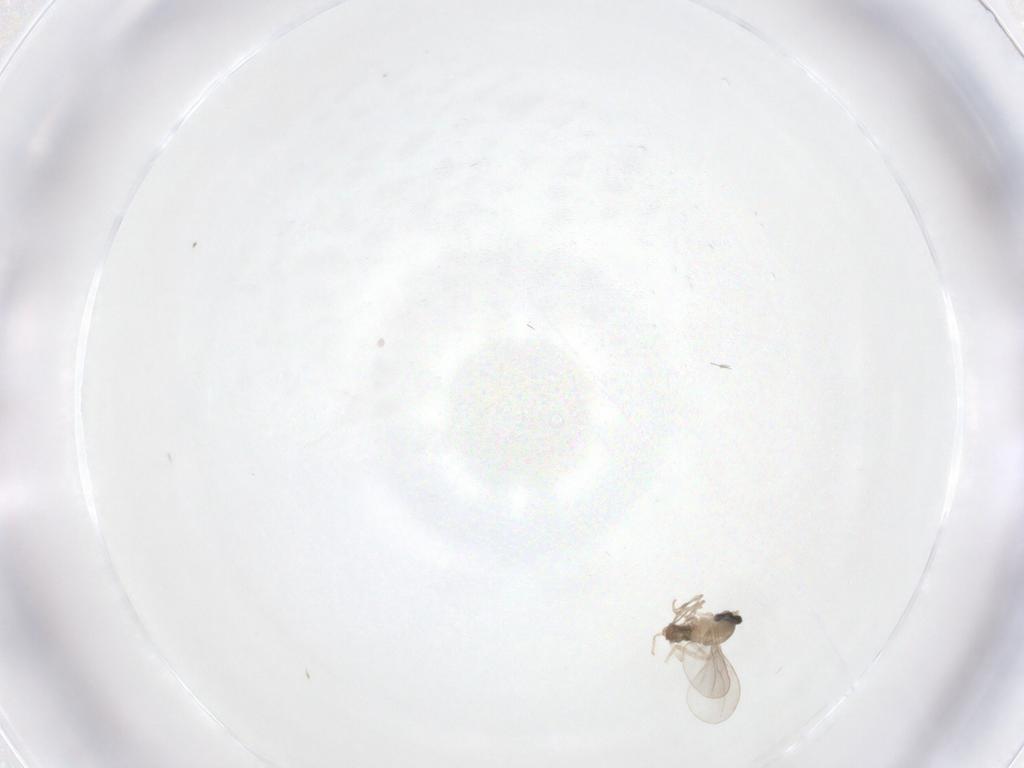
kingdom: Animalia
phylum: Arthropoda
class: Insecta
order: Diptera
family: Cecidomyiidae
